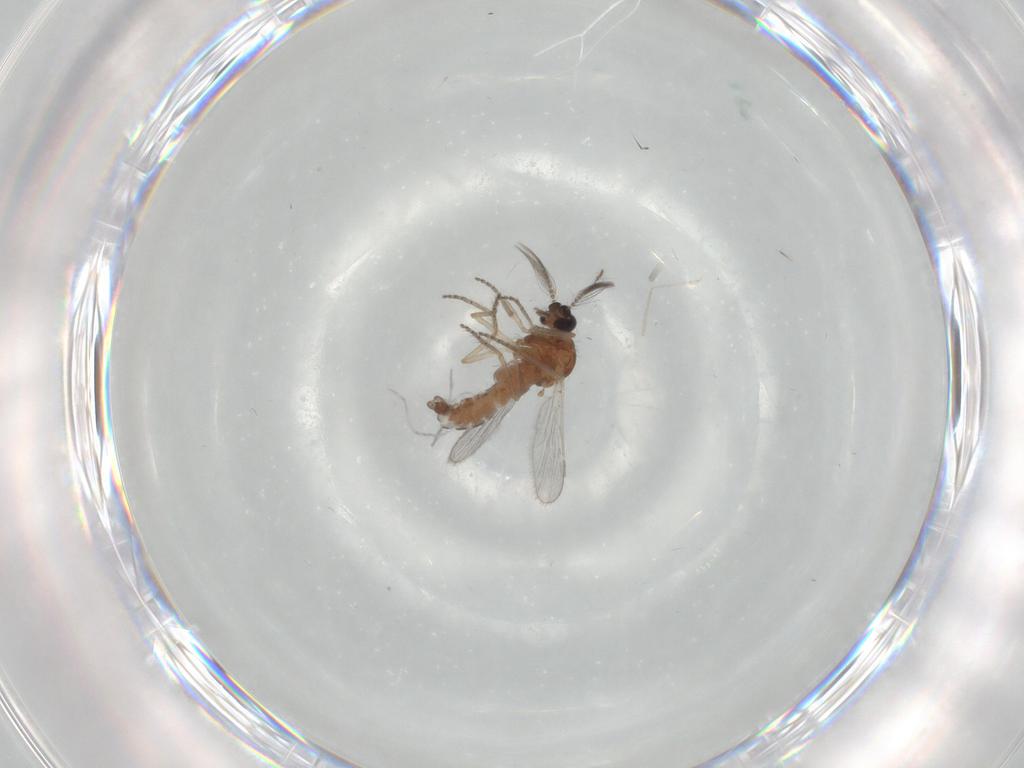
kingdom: Animalia
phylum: Arthropoda
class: Insecta
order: Diptera
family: Ceratopogonidae
